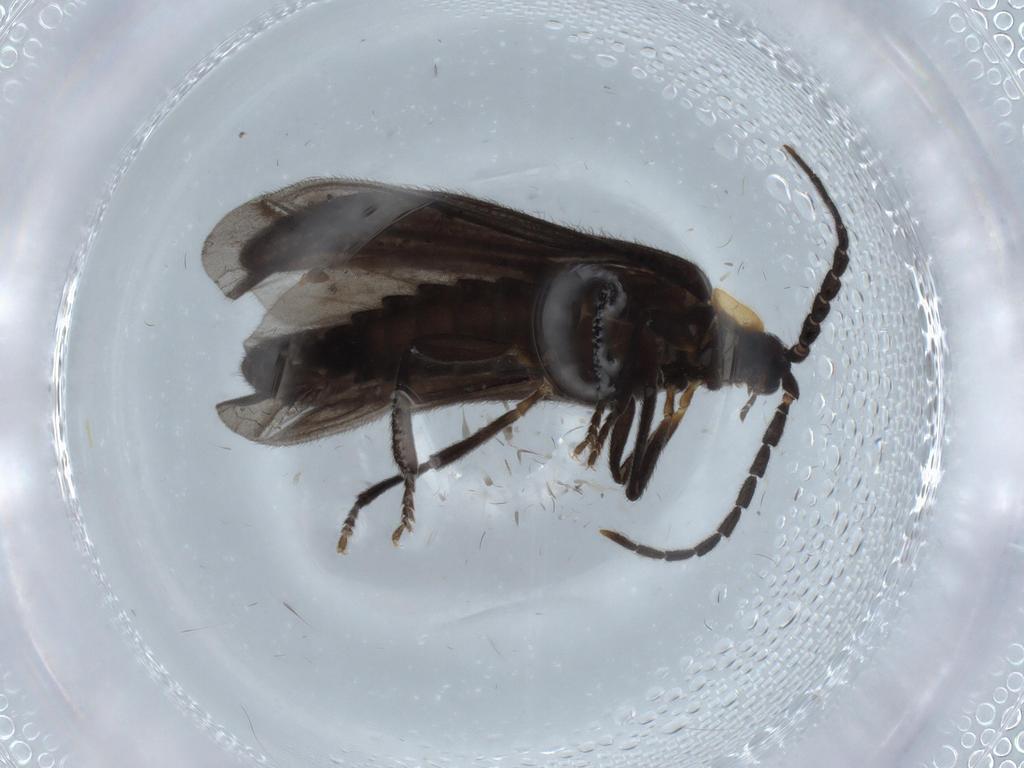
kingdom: Animalia
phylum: Arthropoda
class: Insecta
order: Coleoptera
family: Lycidae
